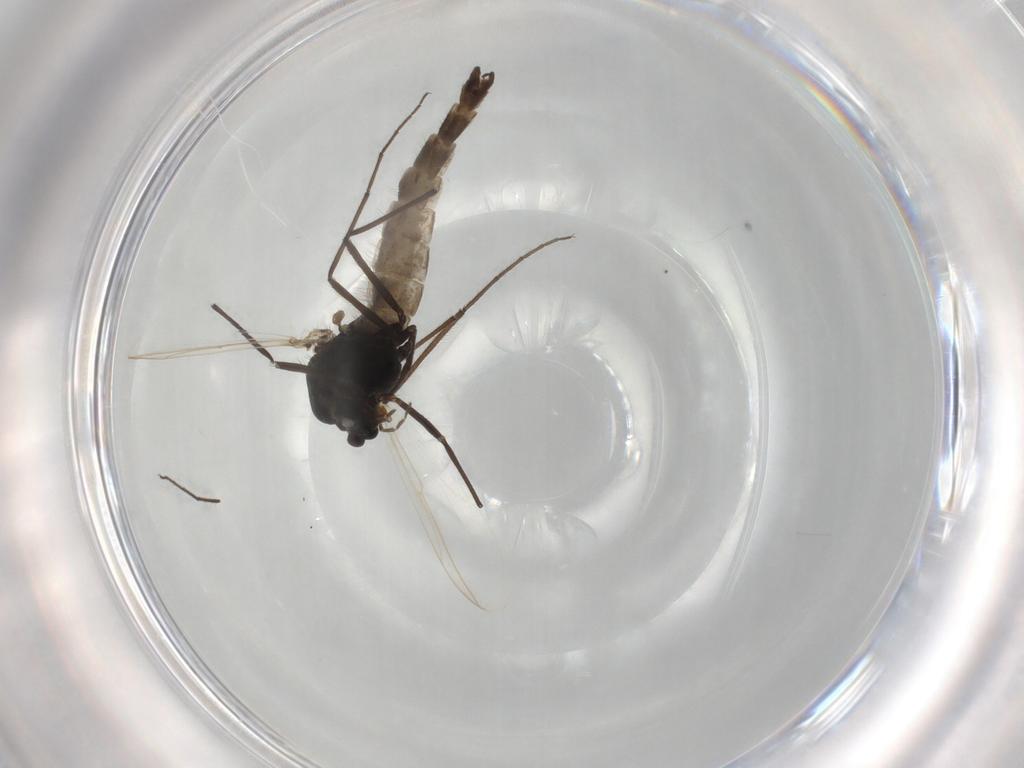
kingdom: Animalia
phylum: Arthropoda
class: Insecta
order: Diptera
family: Chironomidae
